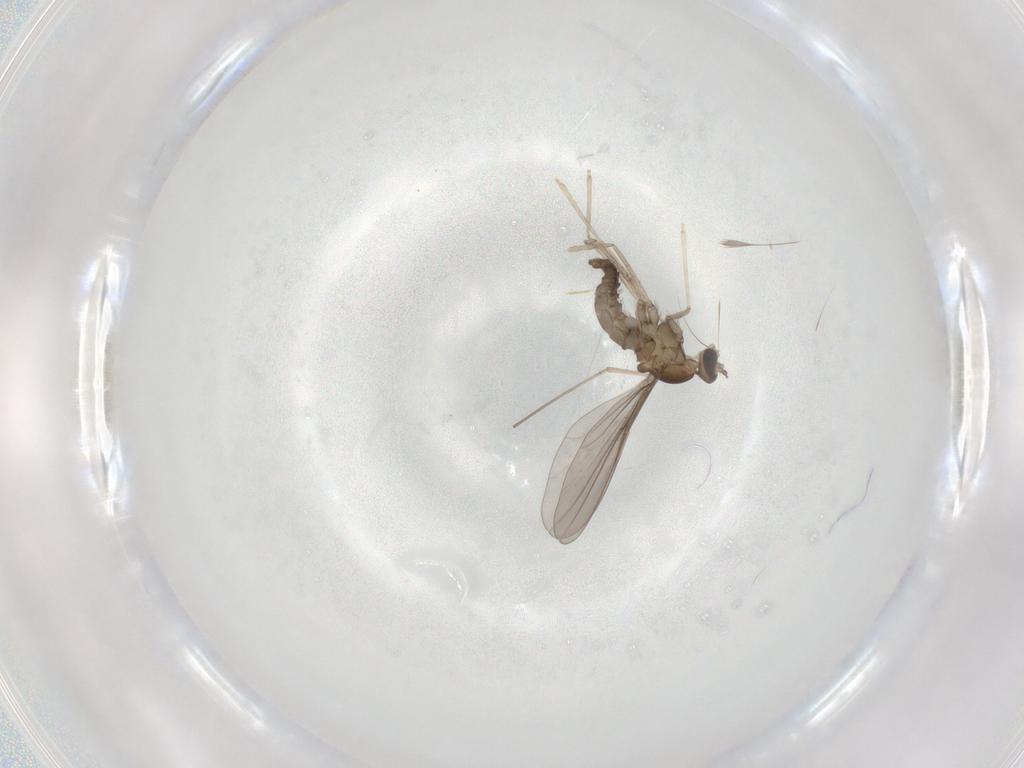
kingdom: Animalia
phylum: Arthropoda
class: Insecta
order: Diptera
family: Cecidomyiidae
